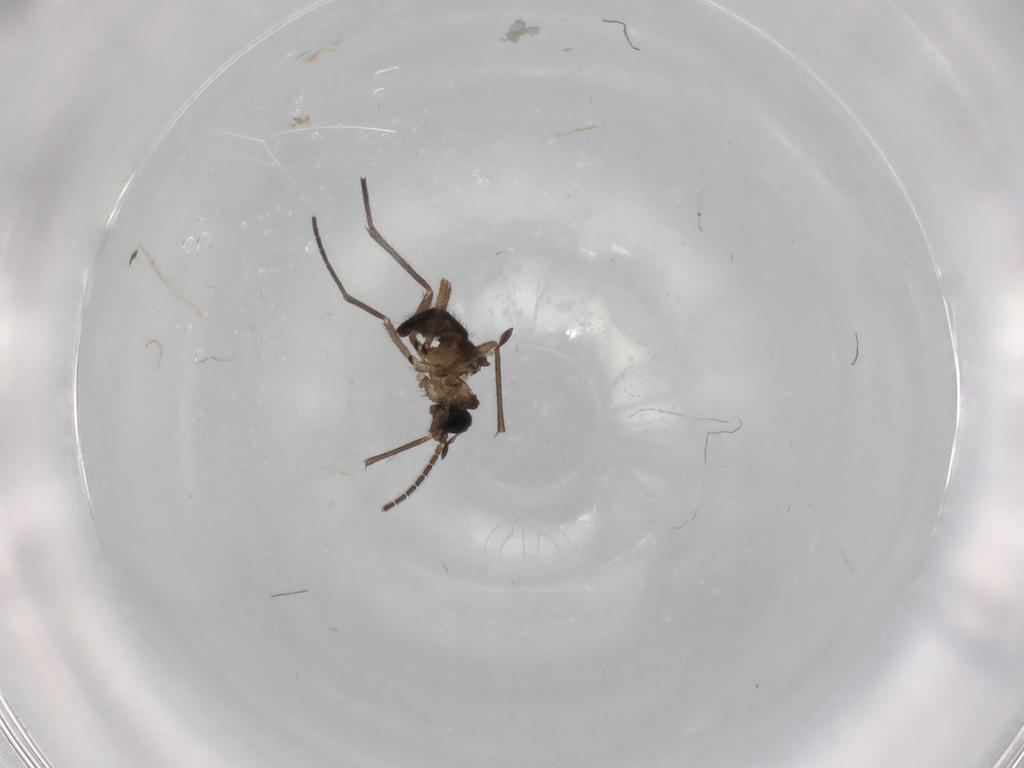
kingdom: Animalia
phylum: Arthropoda
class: Insecta
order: Diptera
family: Sciaridae
